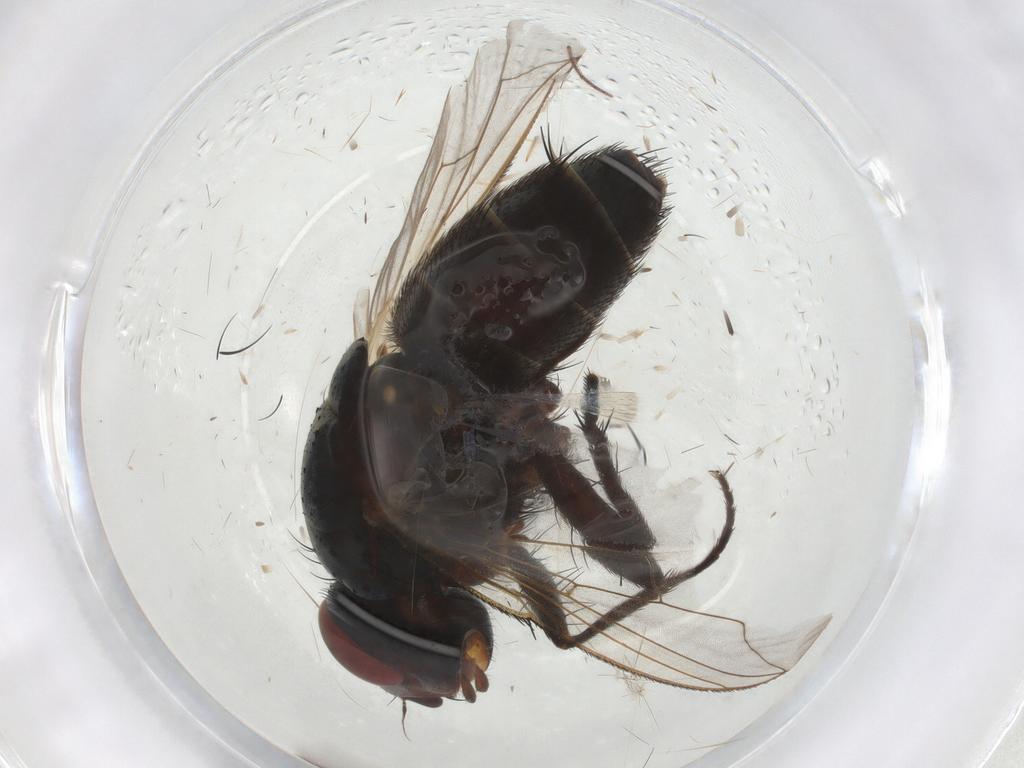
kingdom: Animalia
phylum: Arthropoda
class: Insecta
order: Diptera
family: Sarcophagidae
